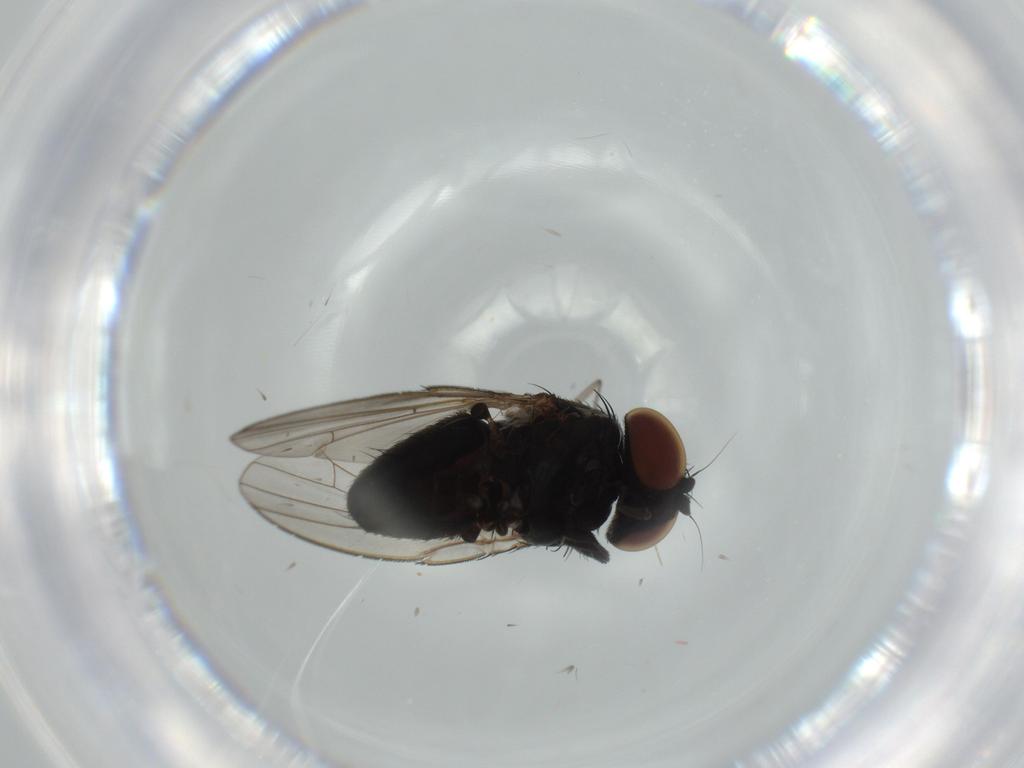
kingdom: Animalia
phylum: Arthropoda
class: Insecta
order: Diptera
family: Milichiidae
